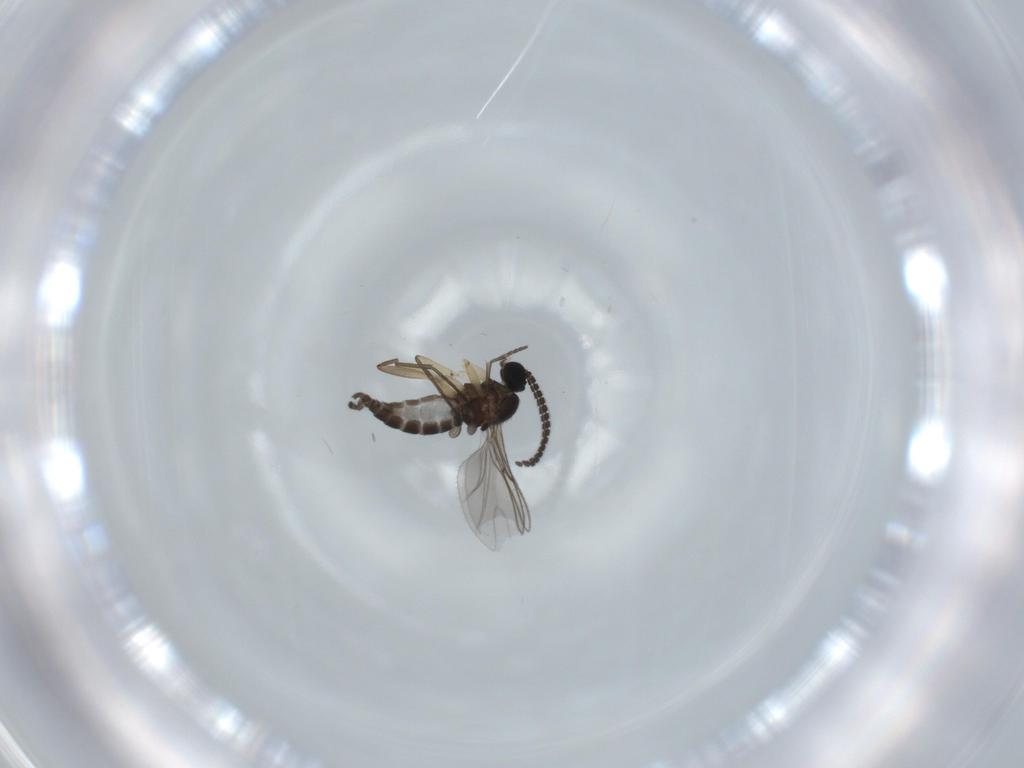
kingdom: Animalia
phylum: Arthropoda
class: Insecta
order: Diptera
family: Sciaridae
